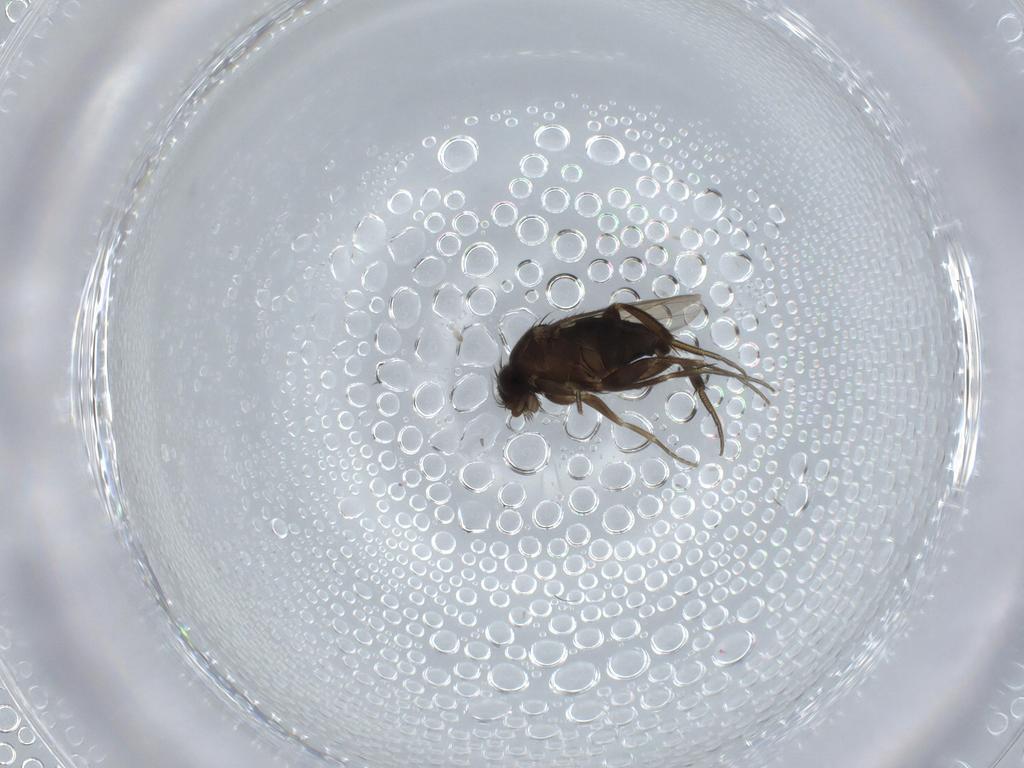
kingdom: Animalia
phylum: Arthropoda
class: Insecta
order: Diptera
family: Phoridae
